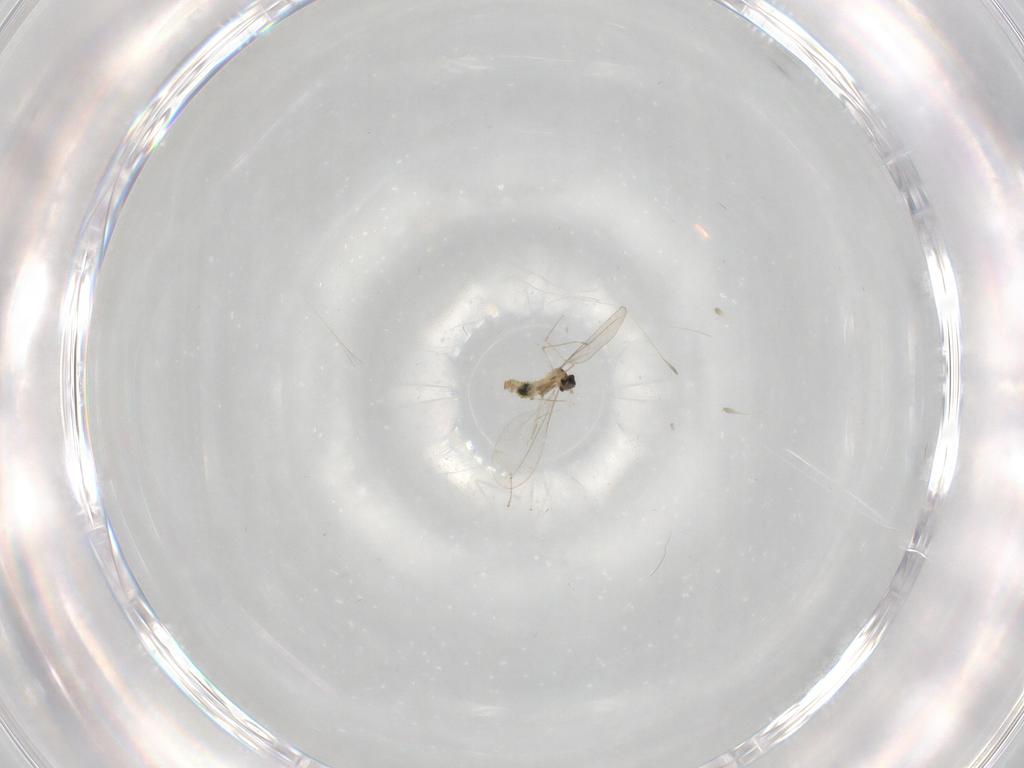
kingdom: Animalia
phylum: Arthropoda
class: Insecta
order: Diptera
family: Cecidomyiidae
